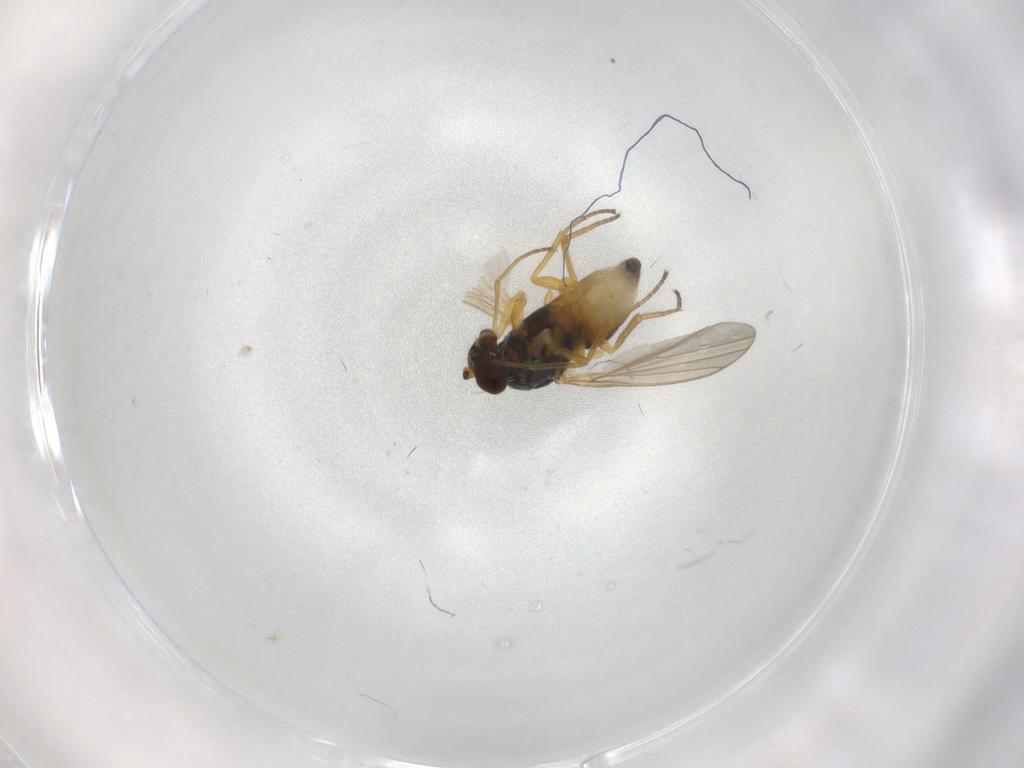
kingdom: Animalia
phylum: Arthropoda
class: Insecta
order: Diptera
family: Dolichopodidae
